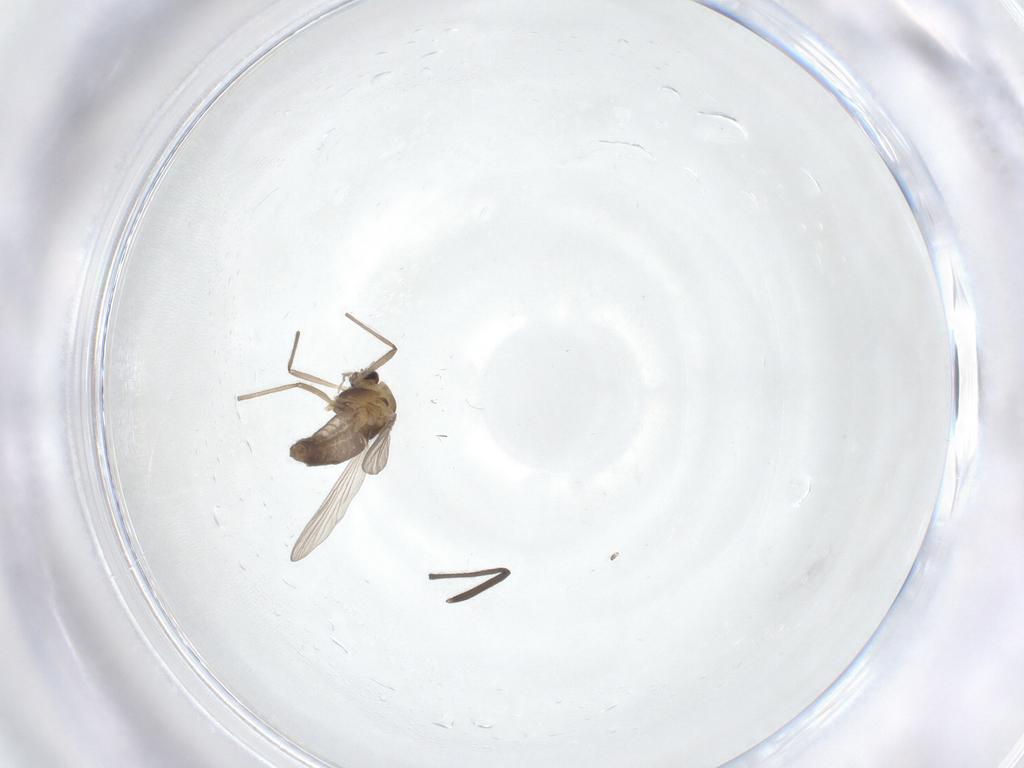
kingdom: Animalia
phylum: Arthropoda
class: Insecta
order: Diptera
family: Chironomidae
